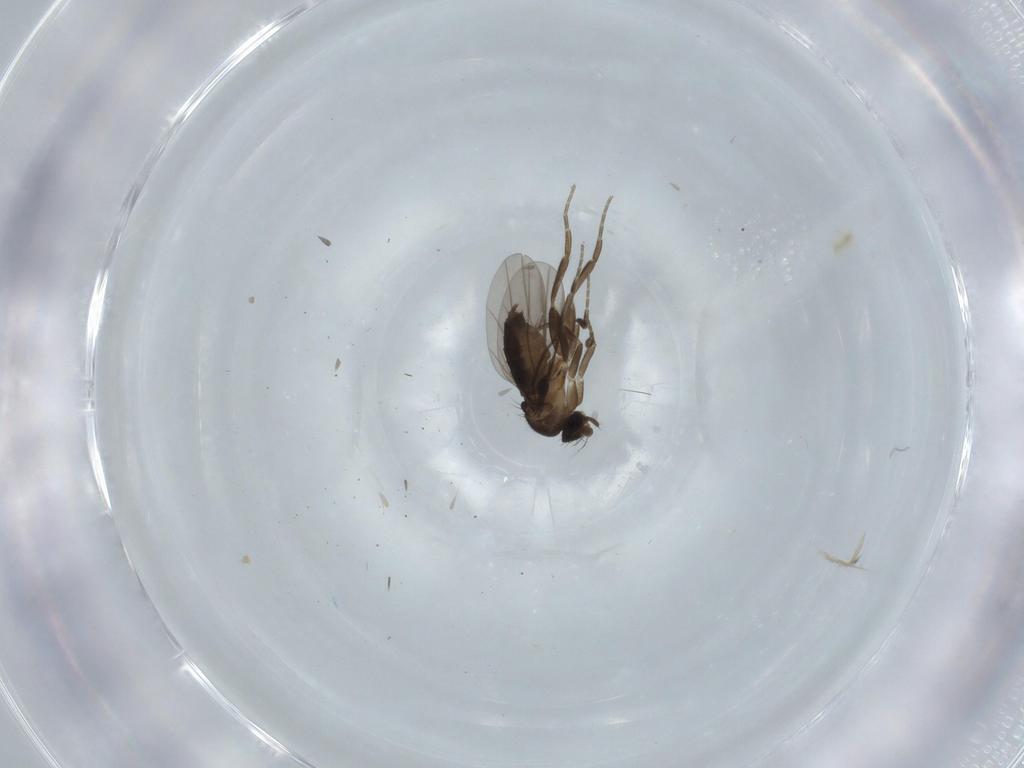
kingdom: Animalia
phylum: Arthropoda
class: Insecta
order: Diptera
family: Phoridae
